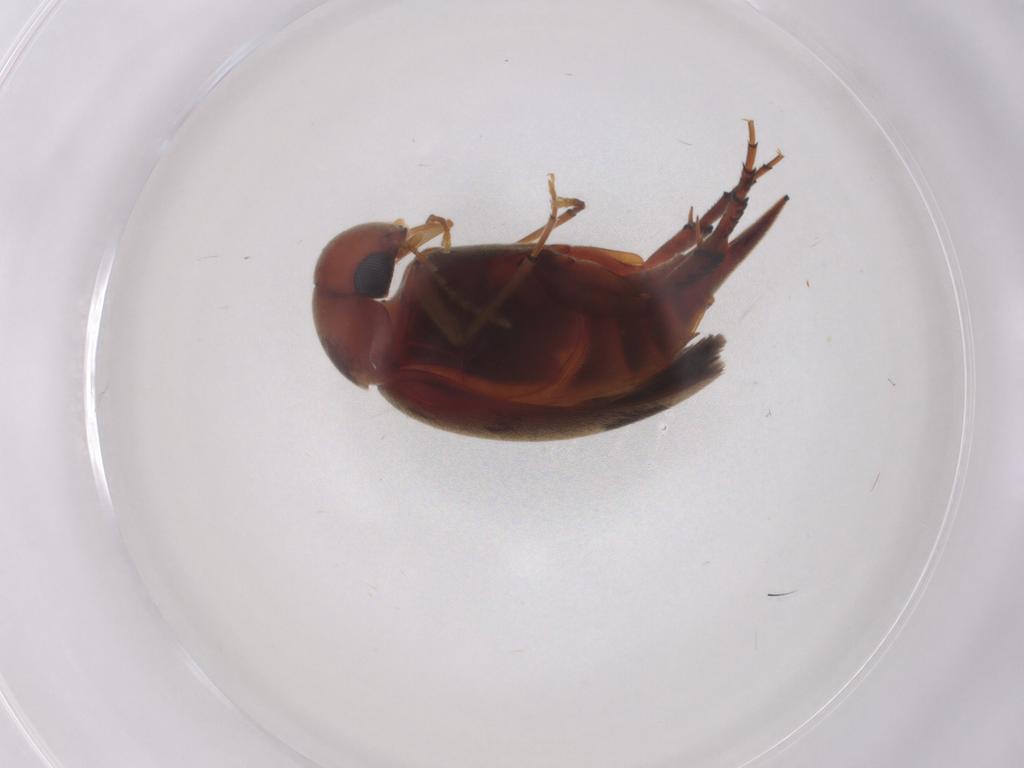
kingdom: Animalia
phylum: Arthropoda
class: Insecta
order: Coleoptera
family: Mordellidae
